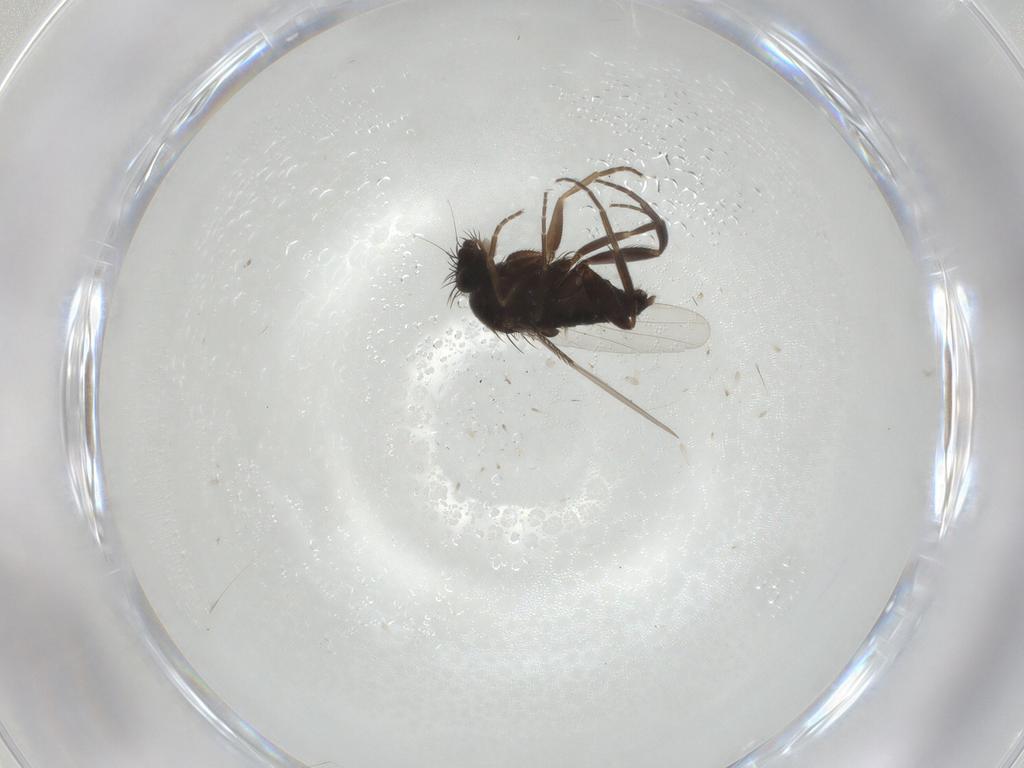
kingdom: Animalia
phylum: Arthropoda
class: Insecta
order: Diptera
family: Phoridae
